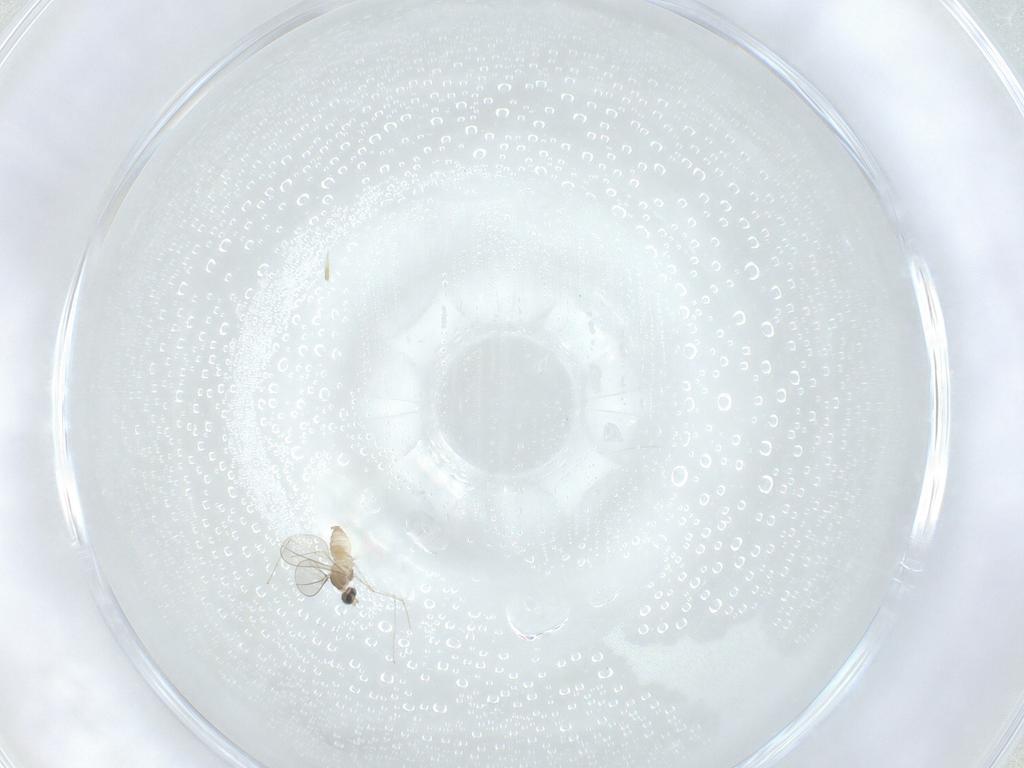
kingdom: Animalia
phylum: Arthropoda
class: Insecta
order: Diptera
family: Cecidomyiidae
